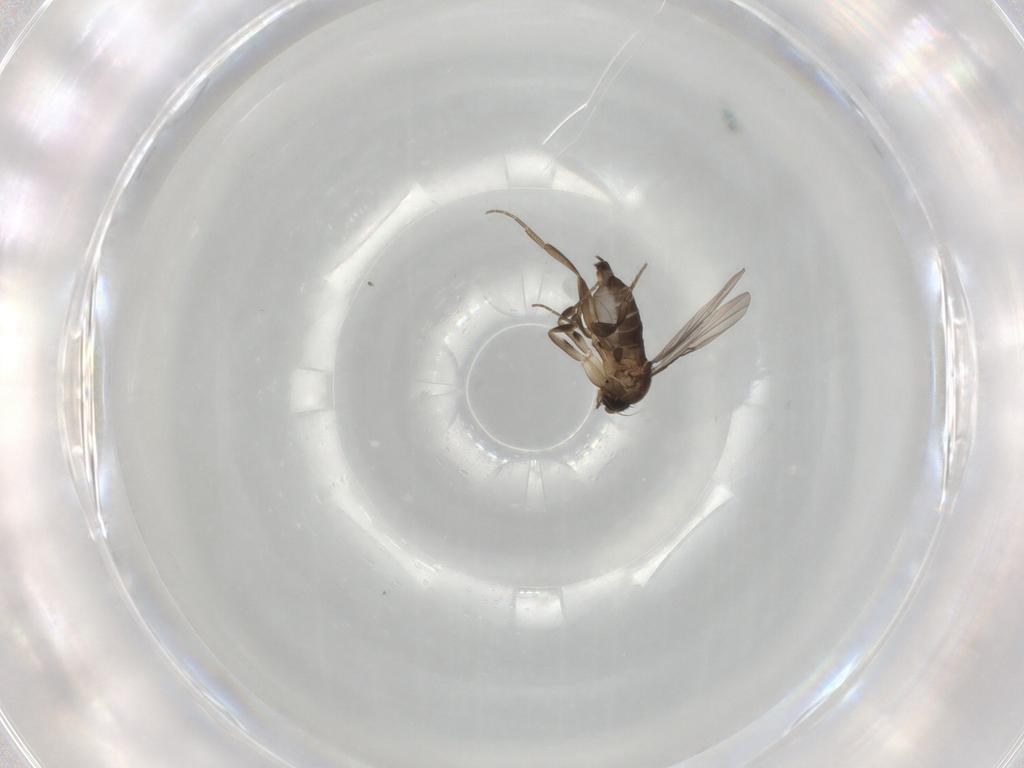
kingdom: Animalia
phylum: Arthropoda
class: Insecta
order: Diptera
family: Phoridae
